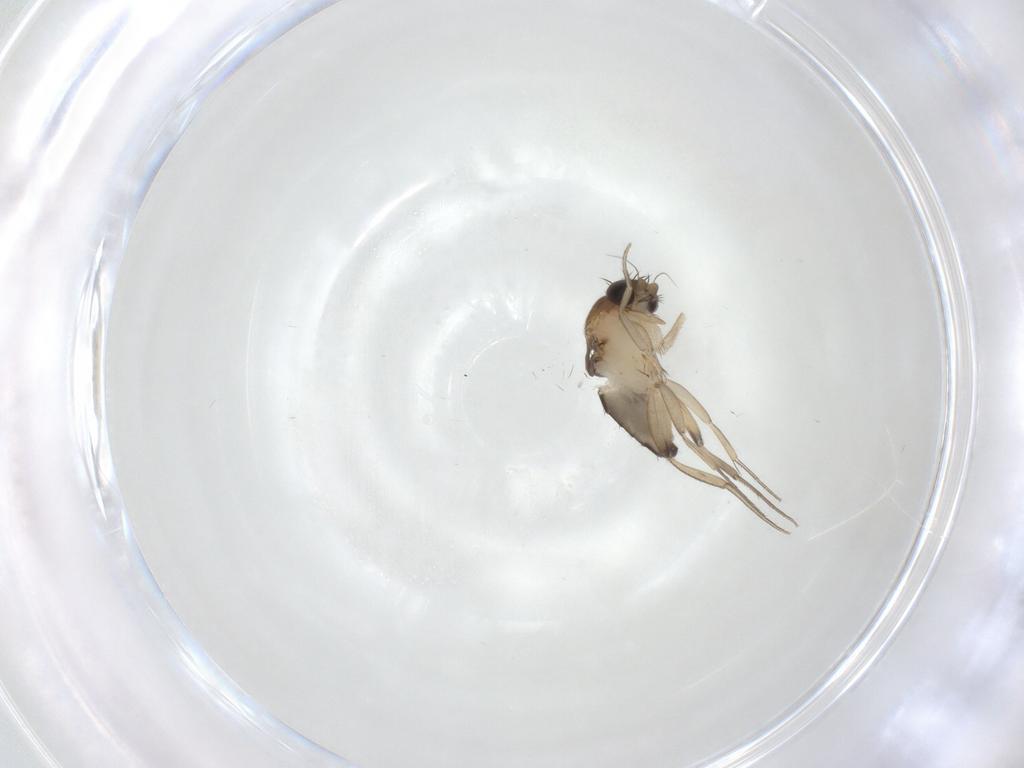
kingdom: Animalia
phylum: Arthropoda
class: Insecta
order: Diptera
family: Phoridae
